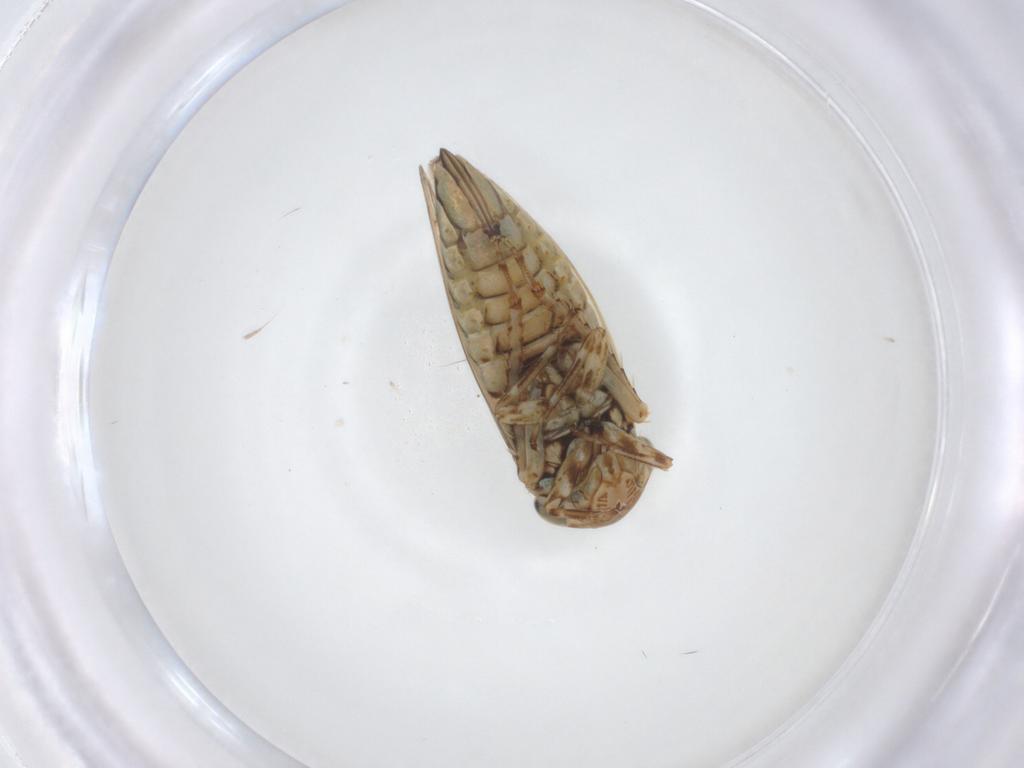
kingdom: Animalia
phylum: Arthropoda
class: Insecta
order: Hemiptera
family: Cicadellidae
